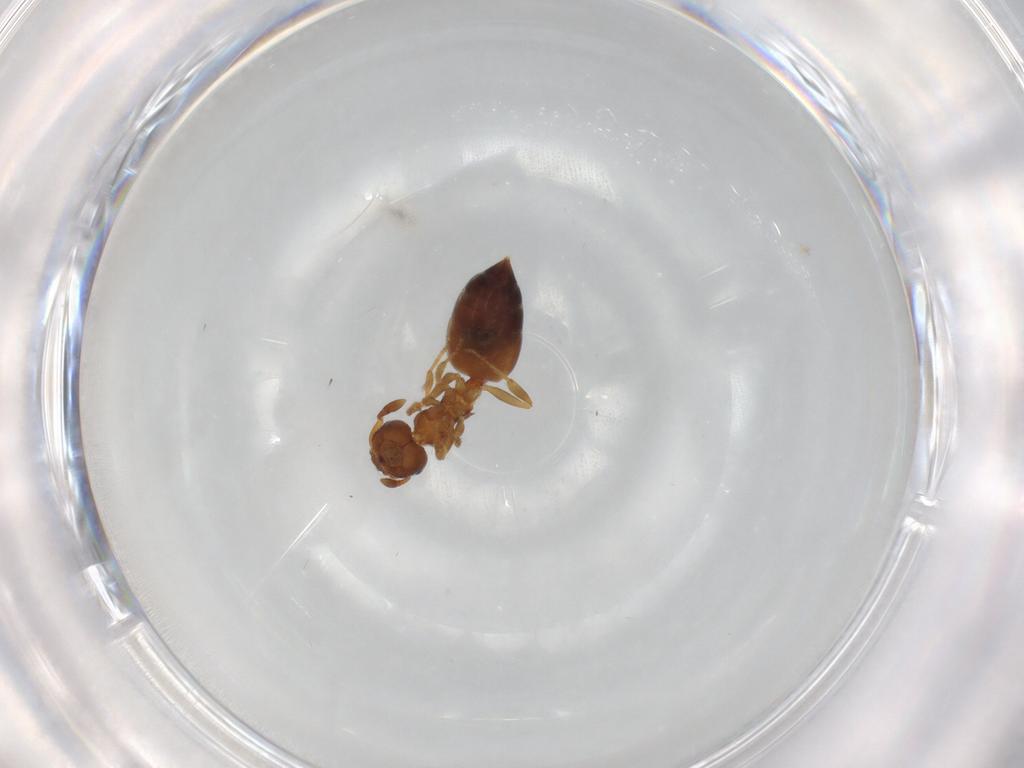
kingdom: Animalia
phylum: Arthropoda
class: Insecta
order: Hymenoptera
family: Formicidae
